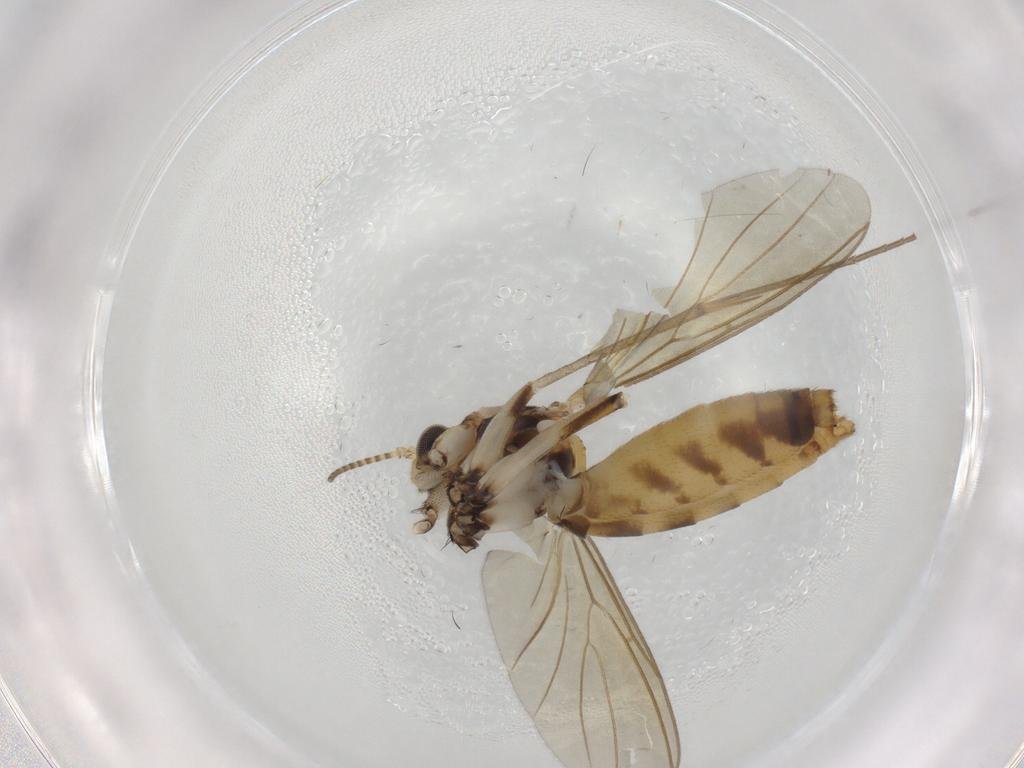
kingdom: Animalia
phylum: Arthropoda
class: Insecta
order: Diptera
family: Mycetophilidae
